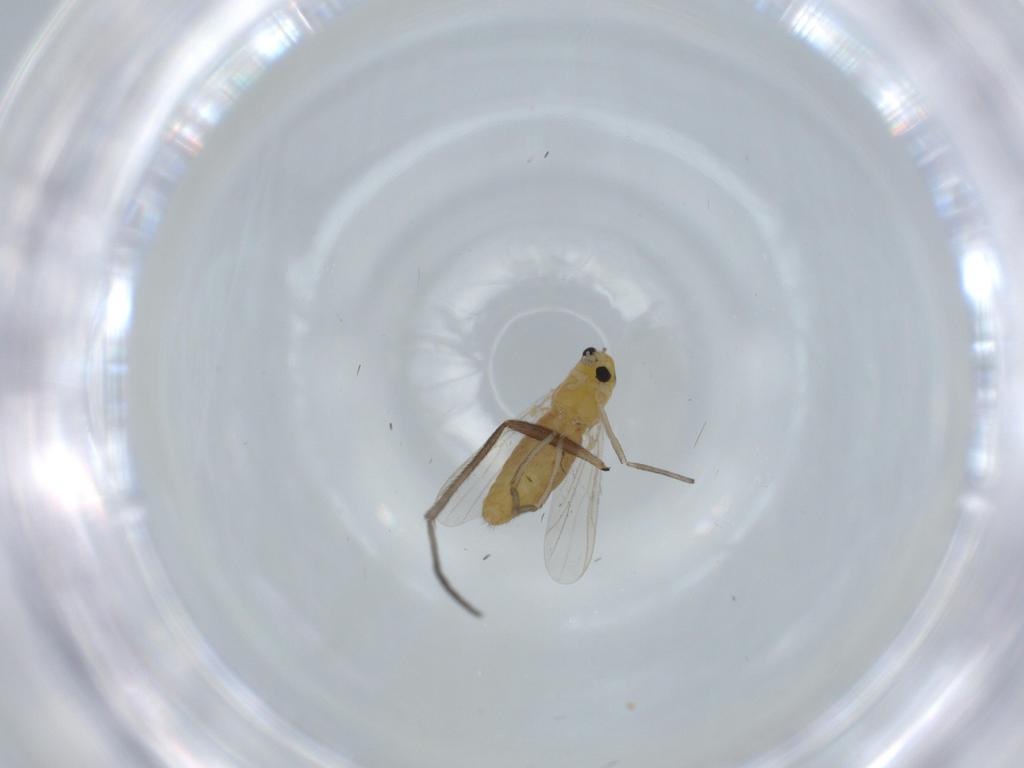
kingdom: Animalia
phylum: Arthropoda
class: Insecta
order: Diptera
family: Chironomidae
